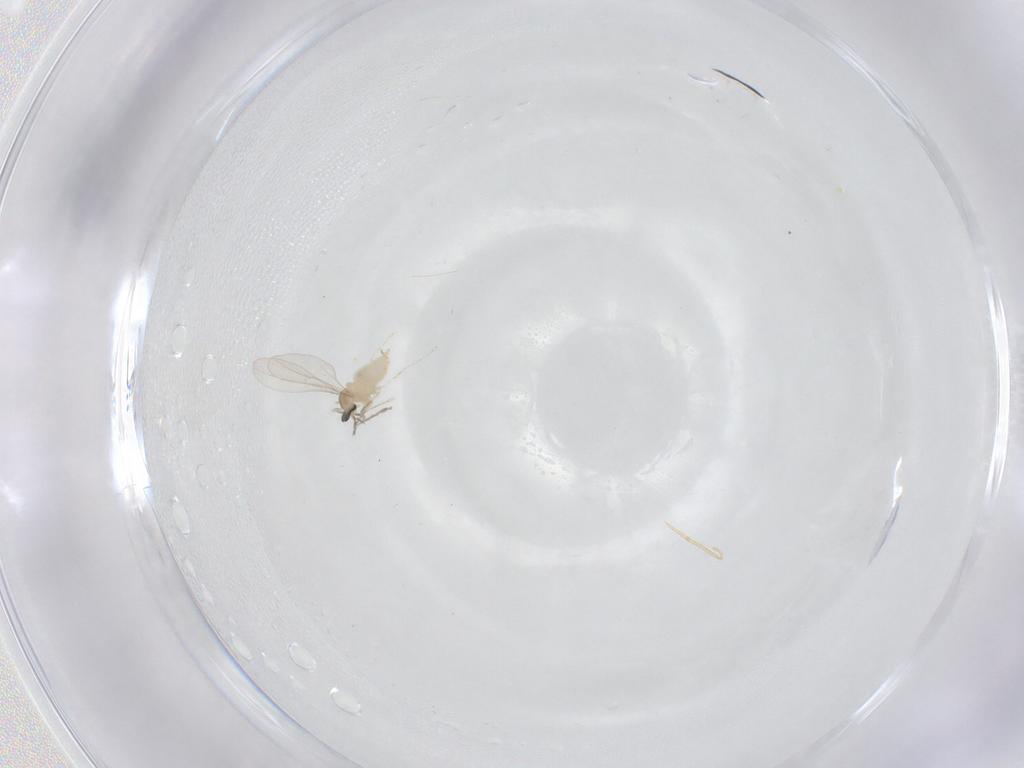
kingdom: Animalia
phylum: Arthropoda
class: Insecta
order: Diptera
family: Cecidomyiidae
